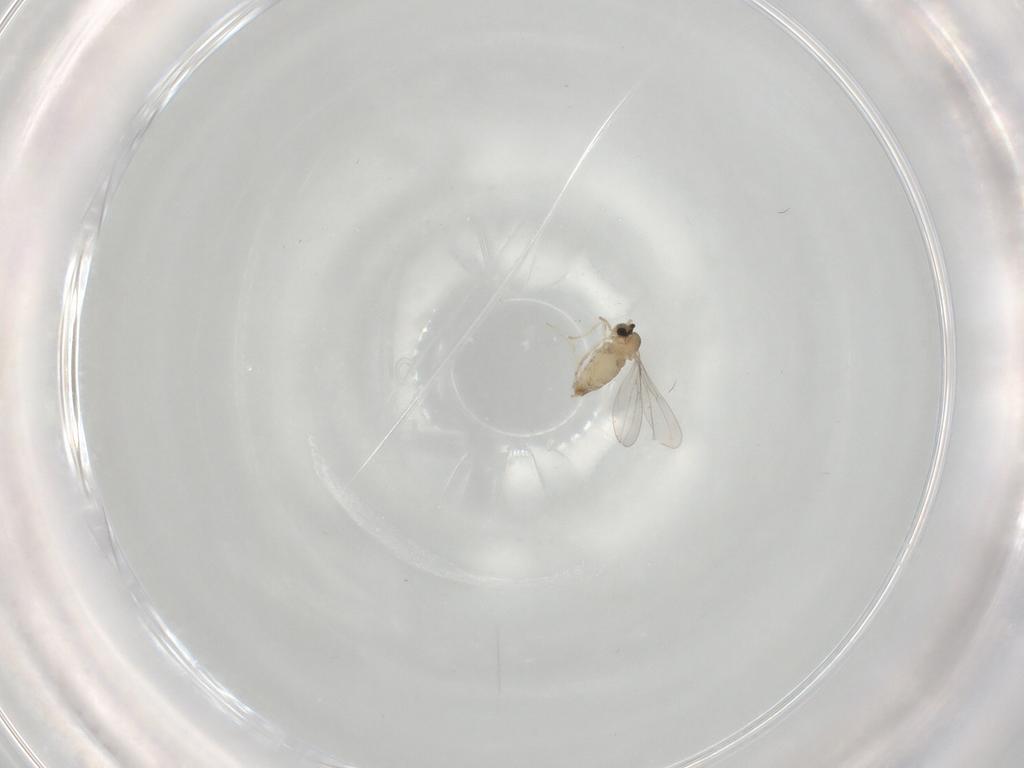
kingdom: Animalia
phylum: Arthropoda
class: Insecta
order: Diptera
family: Cecidomyiidae
